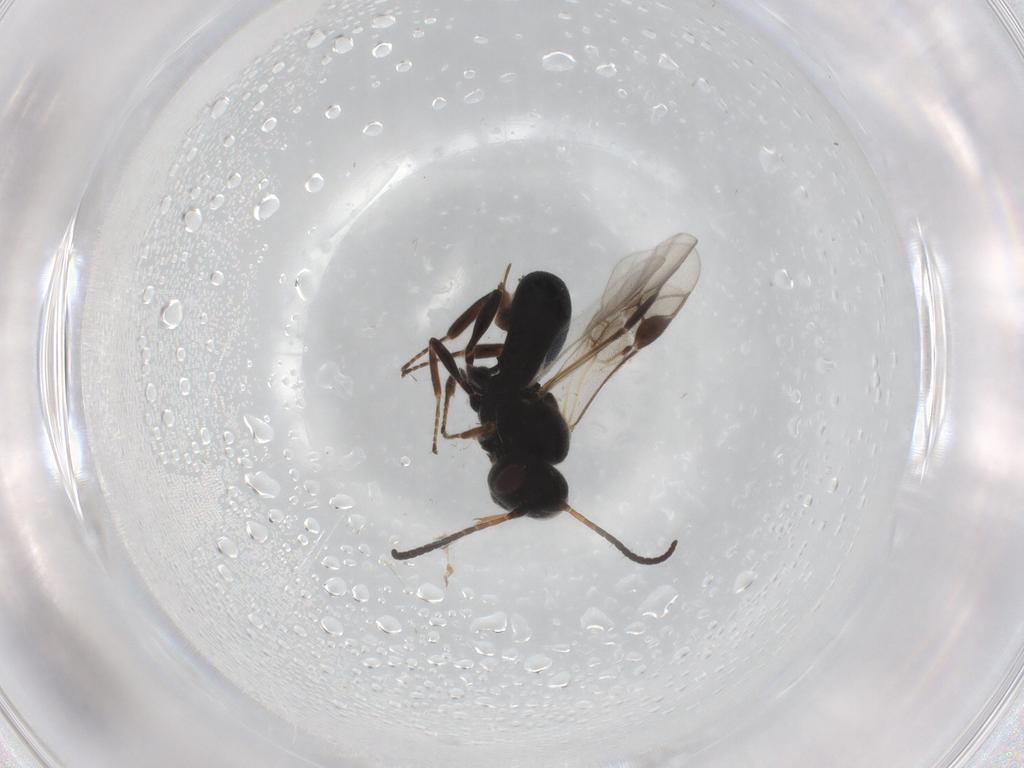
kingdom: Animalia
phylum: Arthropoda
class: Insecta
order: Hymenoptera
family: Braconidae
